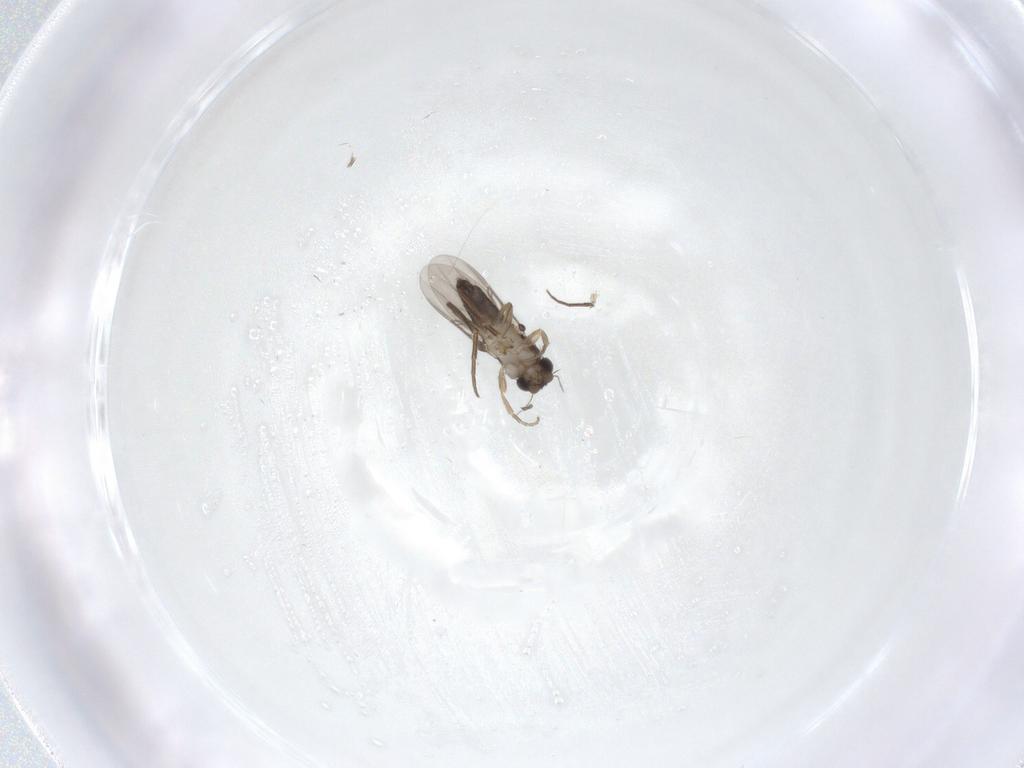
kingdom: Animalia
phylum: Arthropoda
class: Insecta
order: Diptera
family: Phoridae
